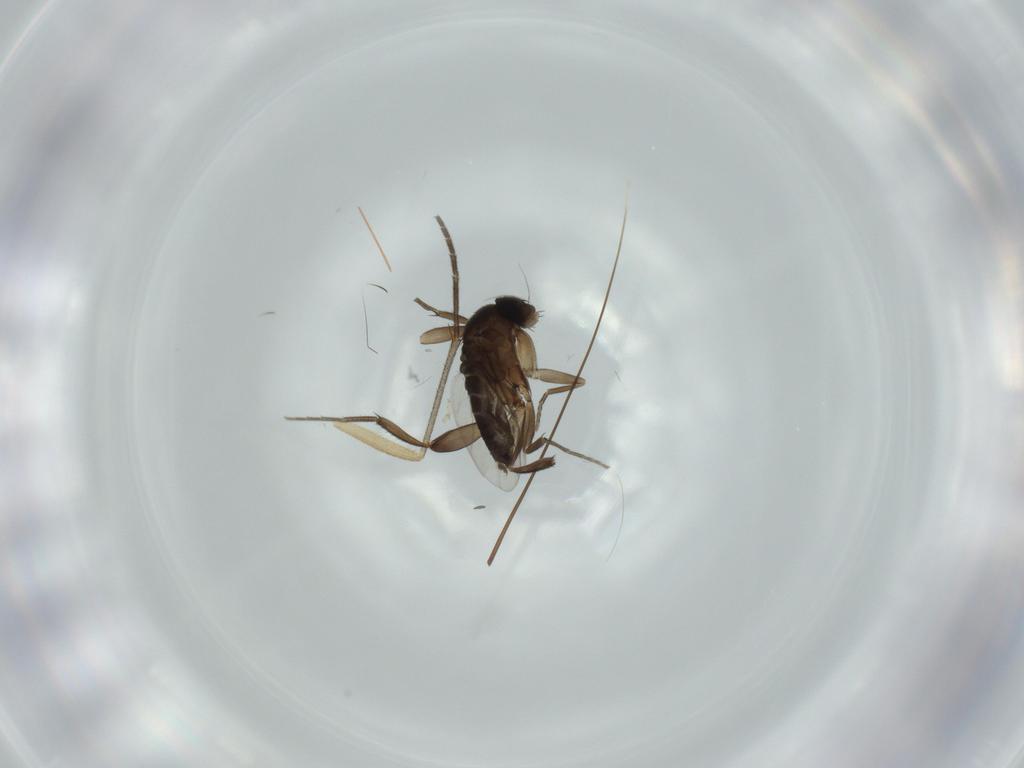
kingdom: Animalia
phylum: Arthropoda
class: Insecta
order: Diptera
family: Phoridae
